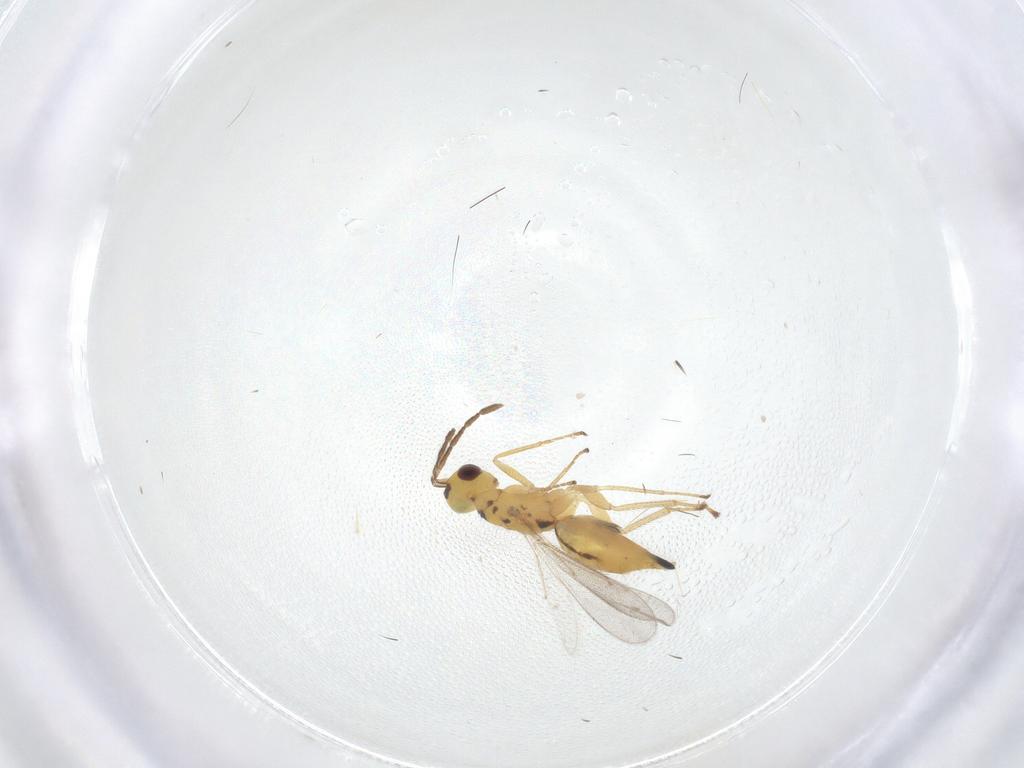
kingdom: Animalia
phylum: Arthropoda
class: Insecta
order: Hymenoptera
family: Eulophidae
